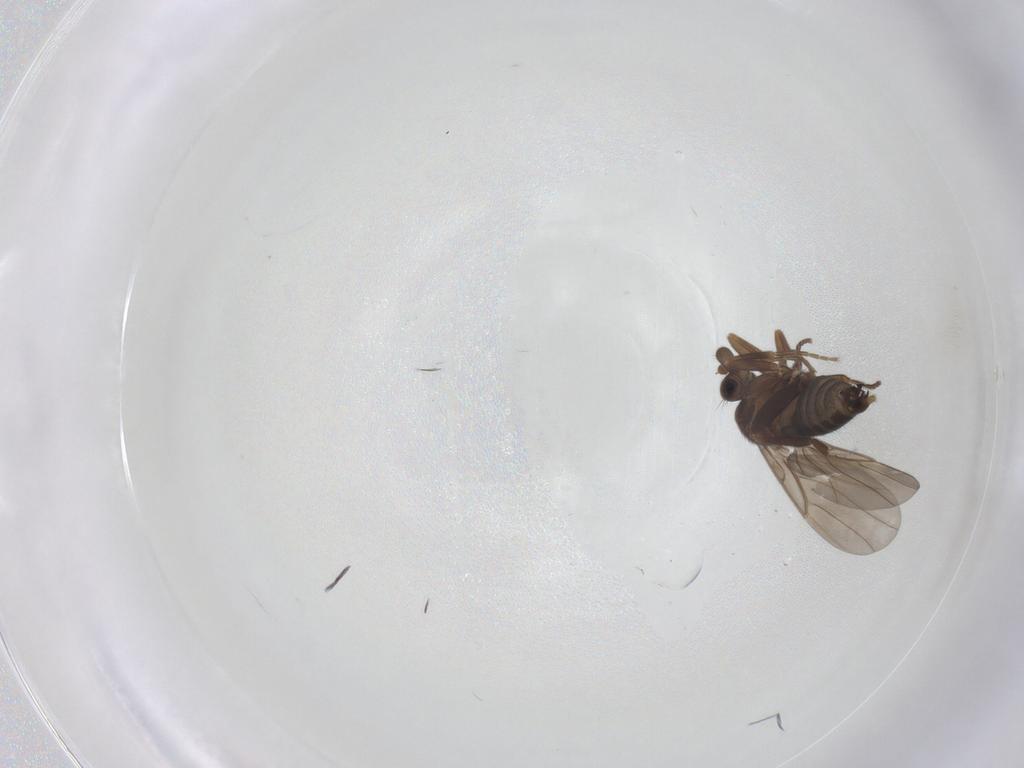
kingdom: Animalia
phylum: Arthropoda
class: Insecta
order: Diptera
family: Phoridae
